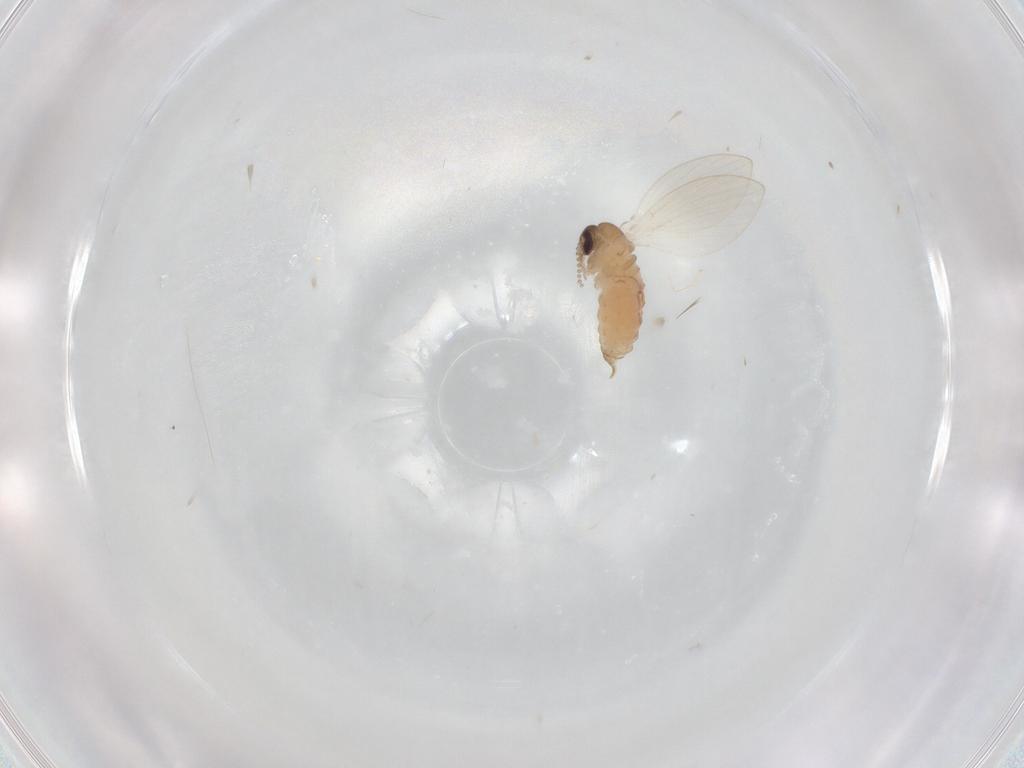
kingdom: Animalia
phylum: Arthropoda
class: Insecta
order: Diptera
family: Psychodidae
